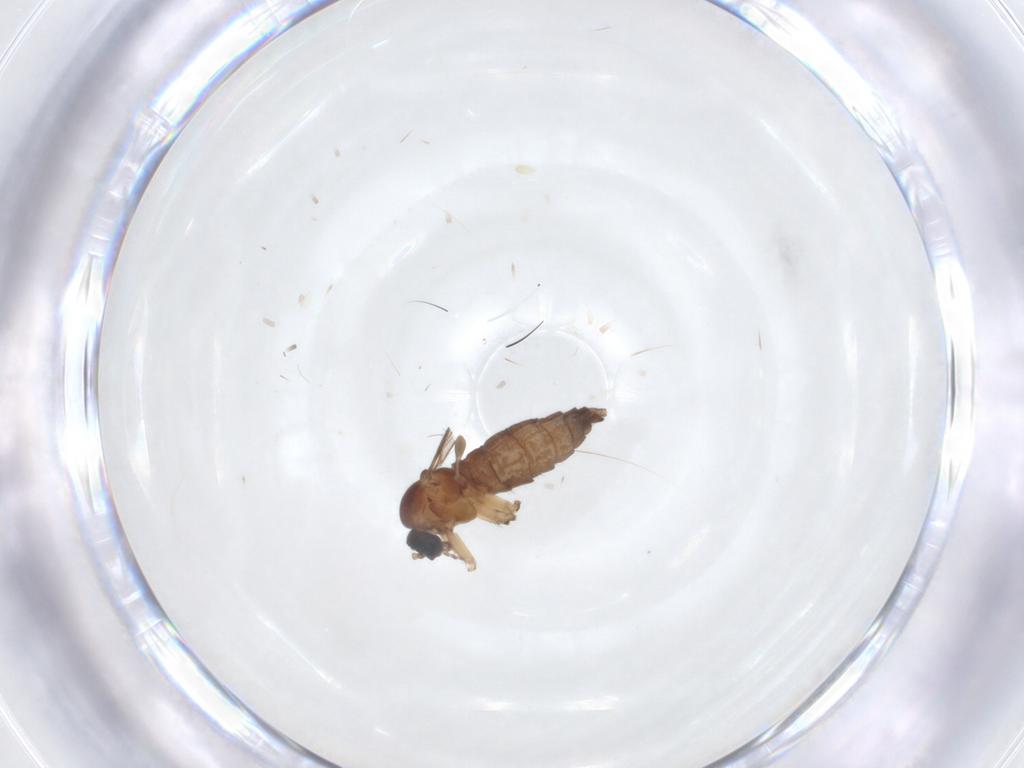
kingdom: Animalia
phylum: Arthropoda
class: Insecta
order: Diptera
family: Sciaridae
